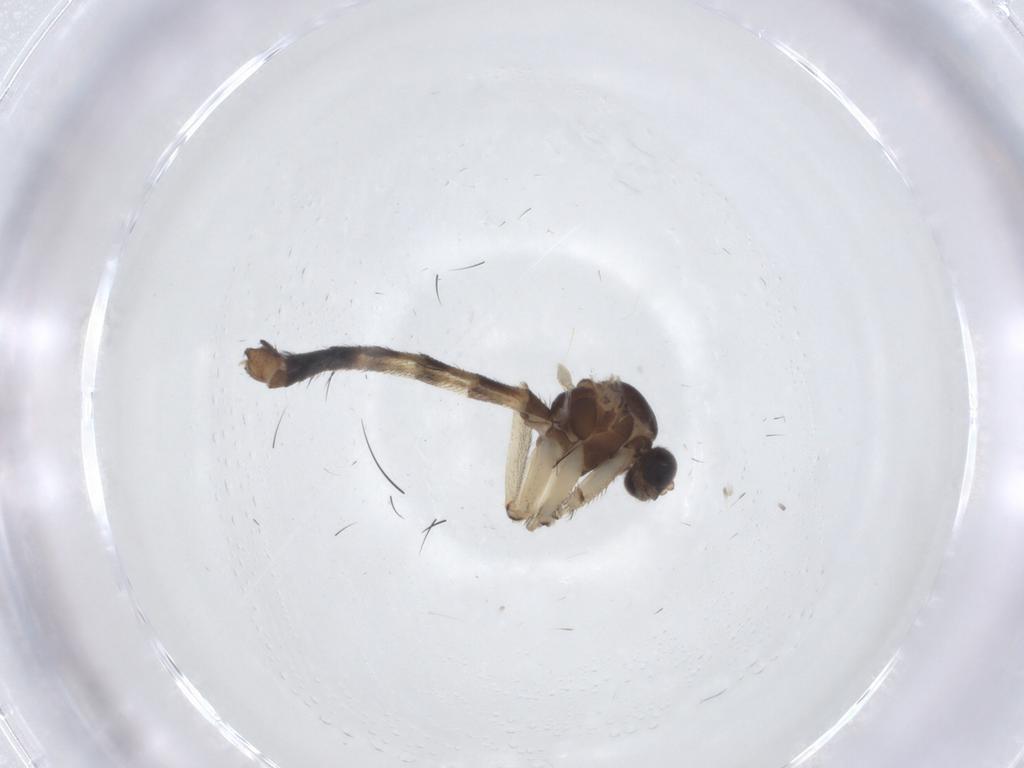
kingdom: Animalia
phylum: Arthropoda
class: Insecta
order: Diptera
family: Keroplatidae
